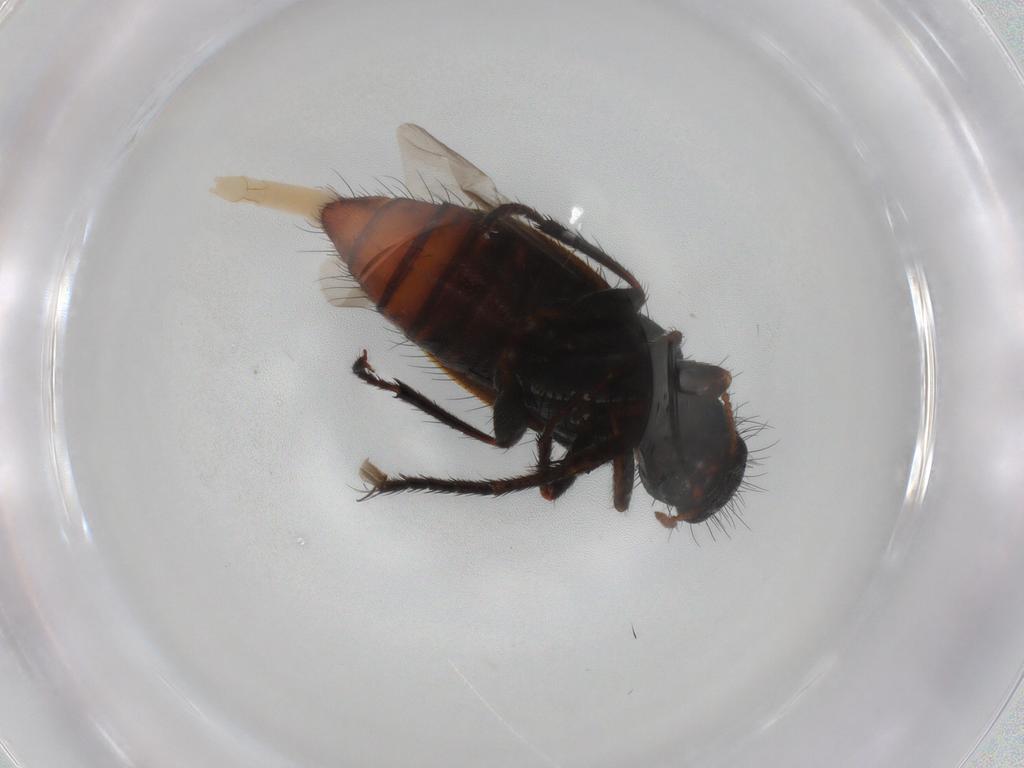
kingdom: Animalia
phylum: Arthropoda
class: Insecta
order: Coleoptera
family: Melyridae
